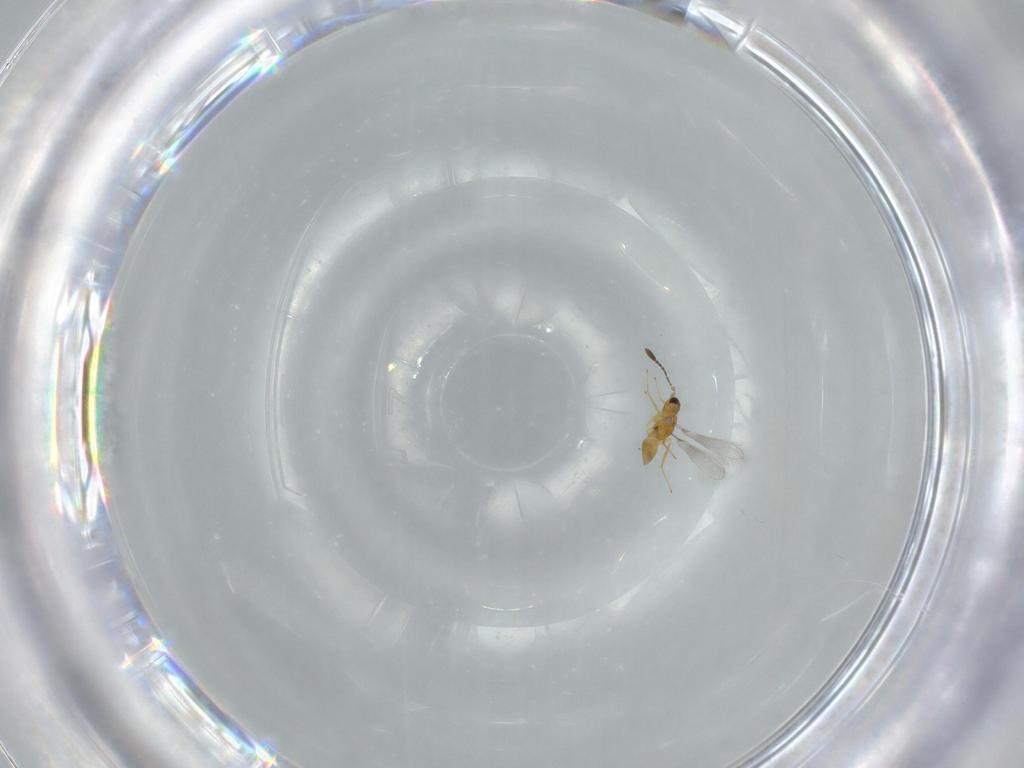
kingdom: Animalia
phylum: Arthropoda
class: Insecta
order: Hymenoptera
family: Mymaridae
